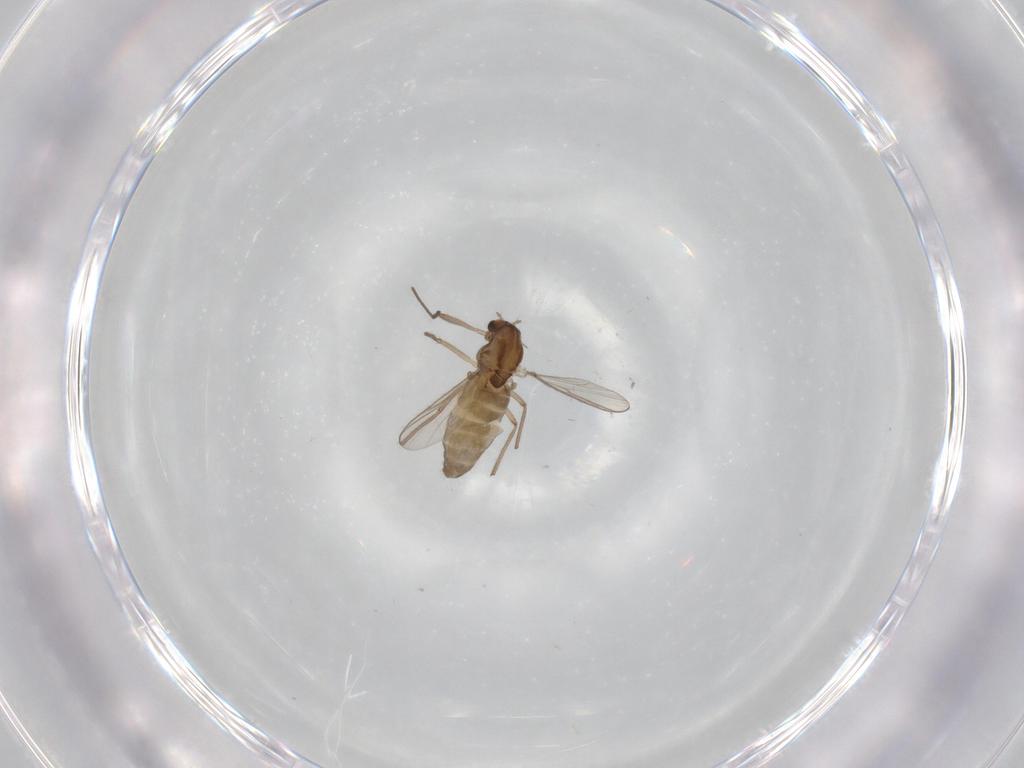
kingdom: Animalia
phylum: Arthropoda
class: Insecta
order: Diptera
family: Chironomidae
